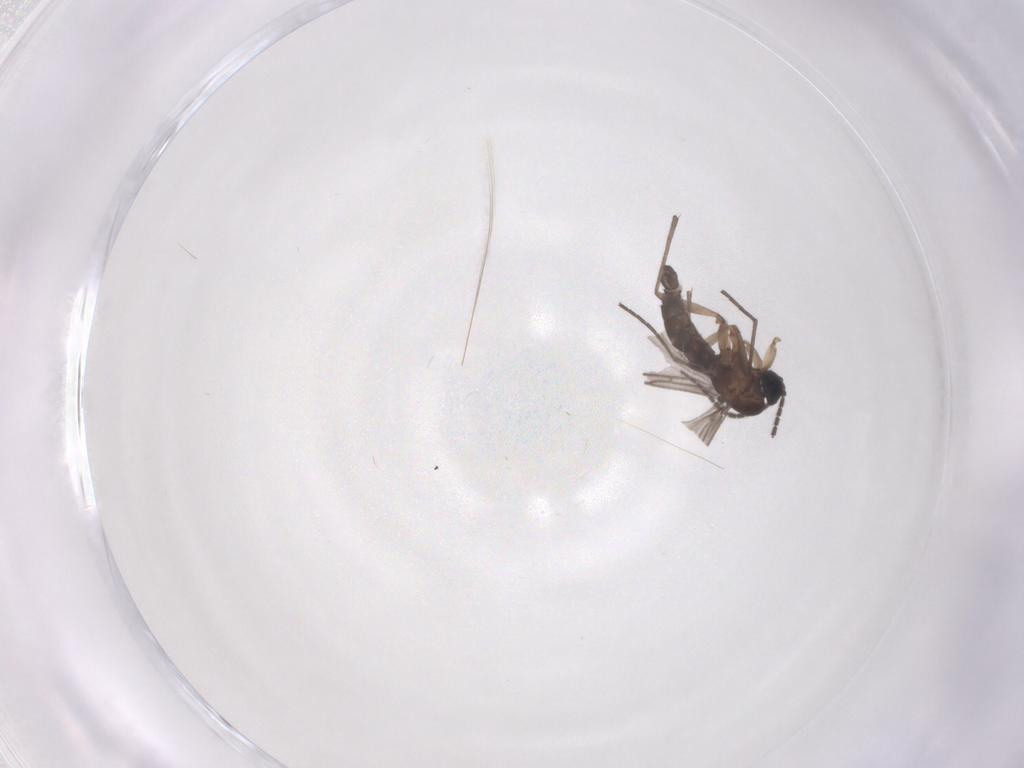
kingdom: Animalia
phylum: Arthropoda
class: Insecta
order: Diptera
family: Sciaridae
